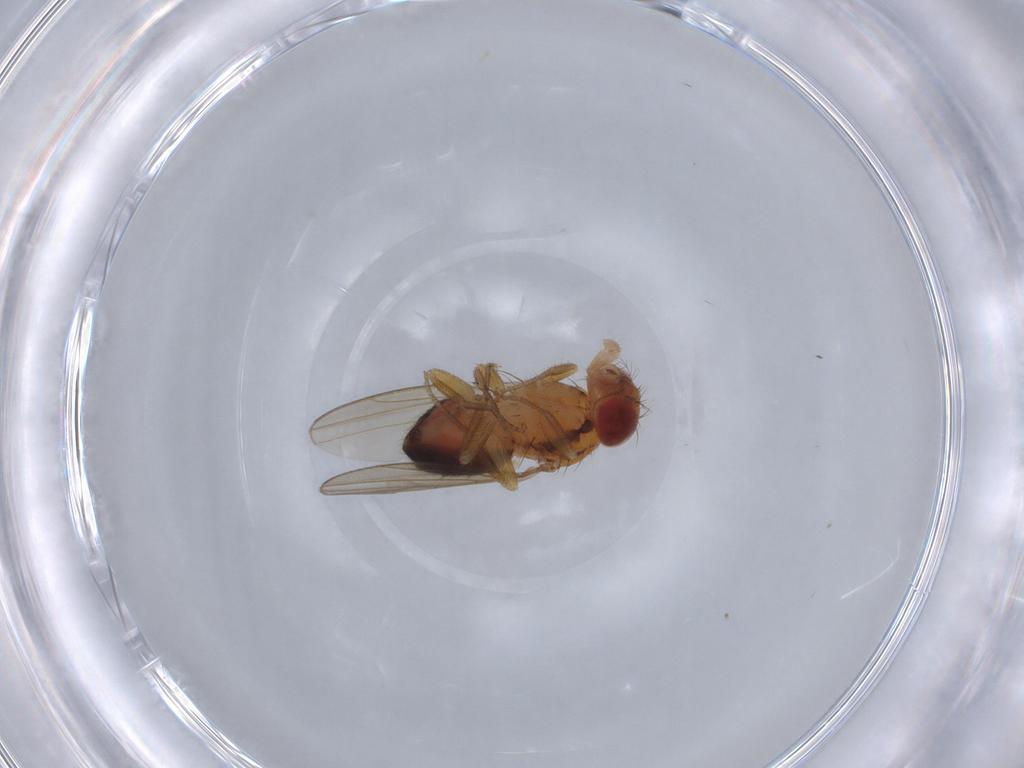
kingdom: Animalia
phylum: Arthropoda
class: Insecta
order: Diptera
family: Drosophilidae
